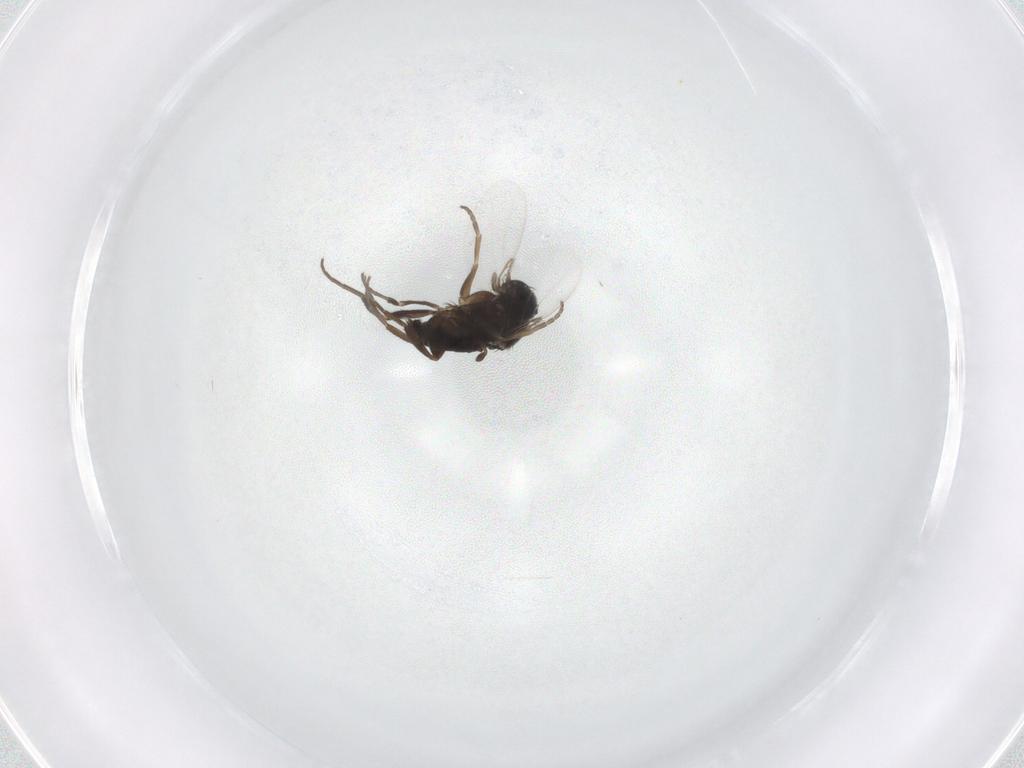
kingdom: Animalia
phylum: Arthropoda
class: Insecta
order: Diptera
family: Phoridae
